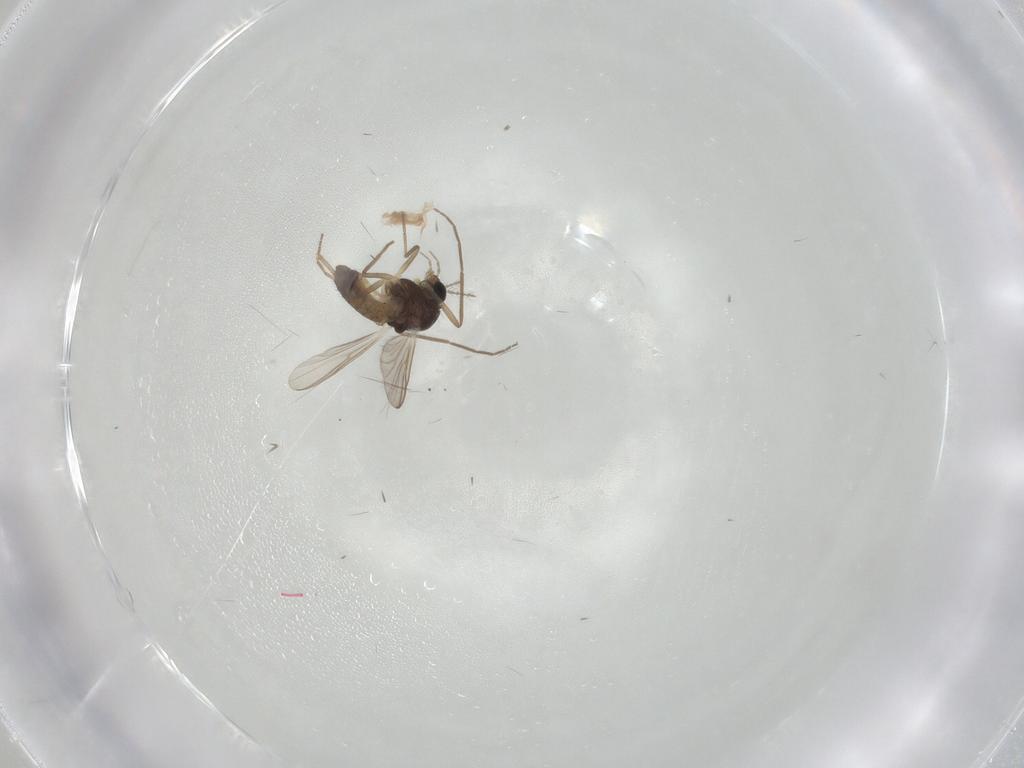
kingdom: Animalia
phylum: Arthropoda
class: Insecta
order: Diptera
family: Chironomidae
